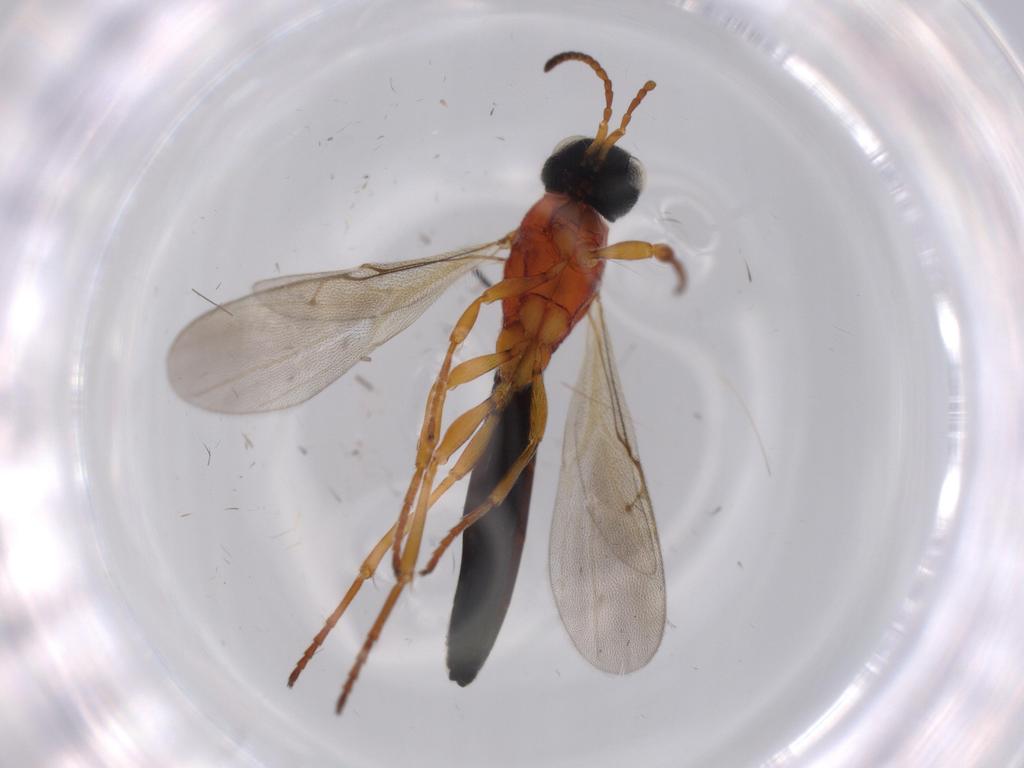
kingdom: Animalia
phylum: Arthropoda
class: Insecta
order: Hymenoptera
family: Scelionidae
